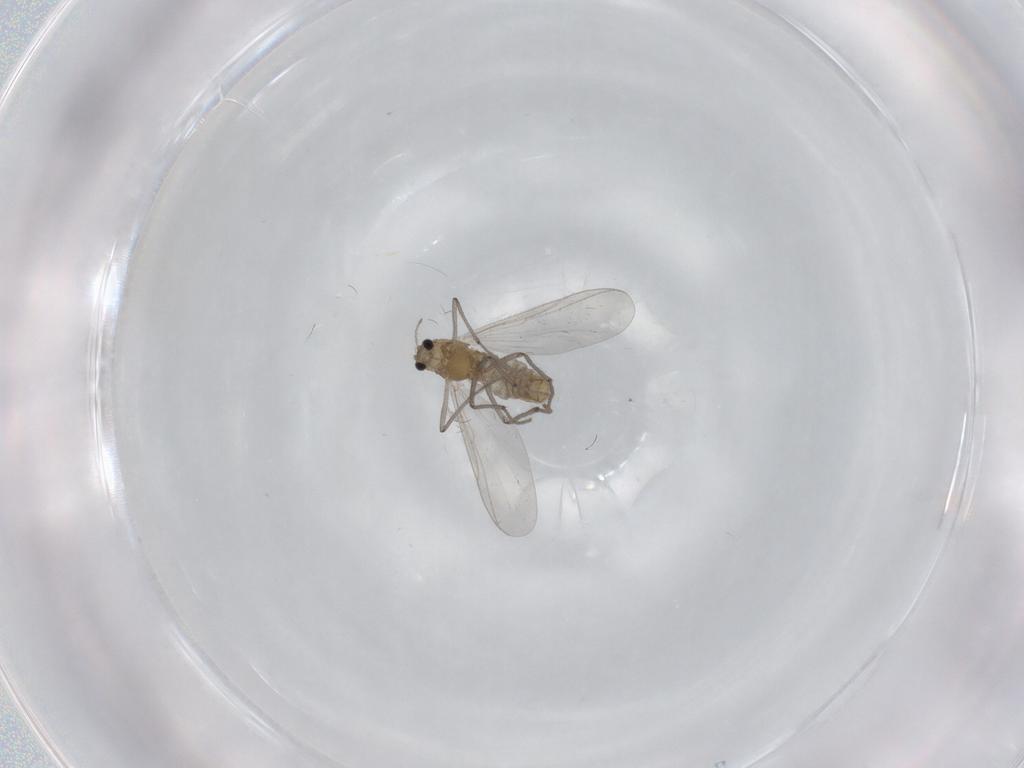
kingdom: Animalia
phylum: Arthropoda
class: Insecta
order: Diptera
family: Chironomidae
